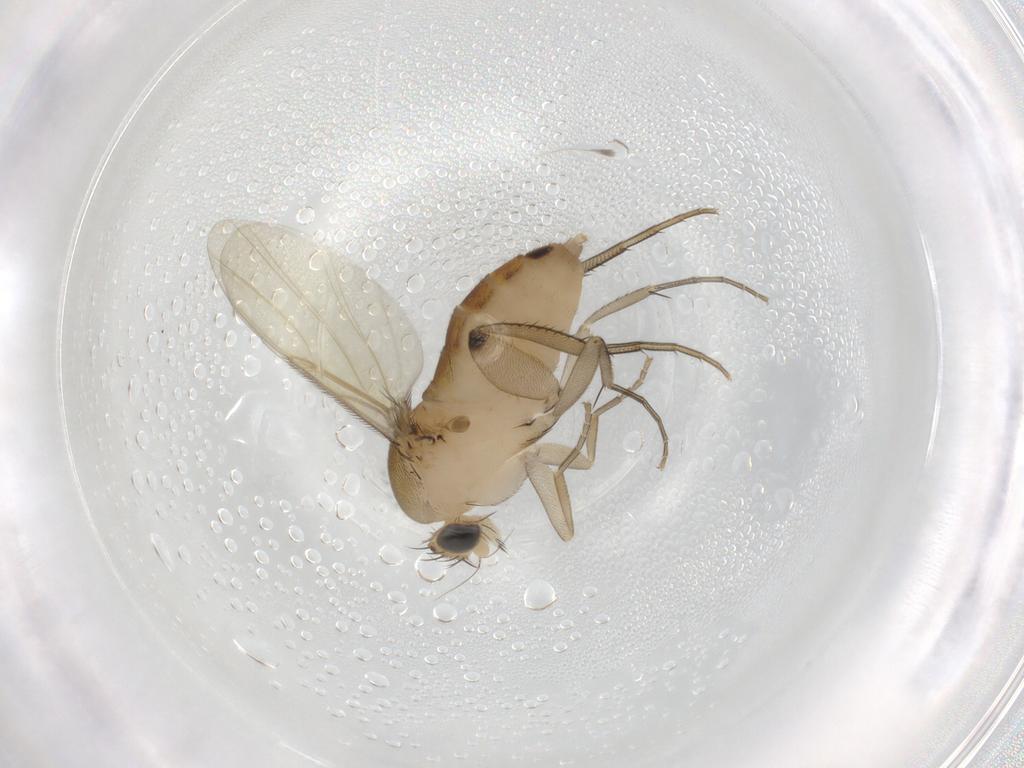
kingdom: Animalia
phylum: Arthropoda
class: Insecta
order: Diptera
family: Phoridae
